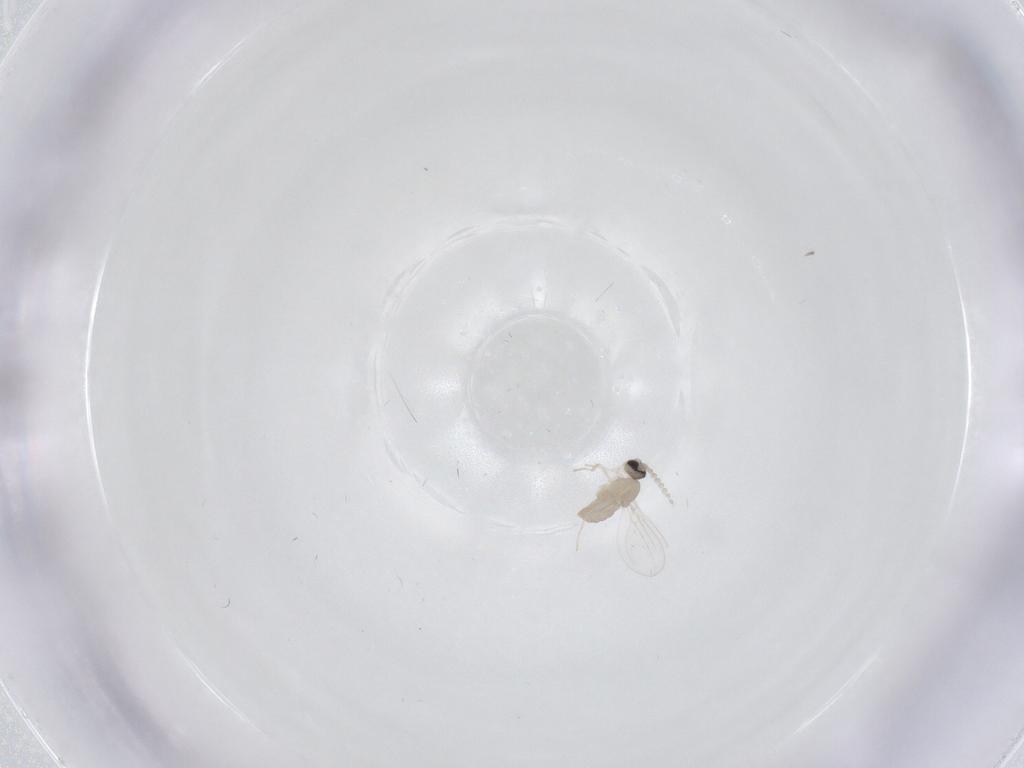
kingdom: Animalia
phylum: Arthropoda
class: Insecta
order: Diptera
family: Cecidomyiidae
